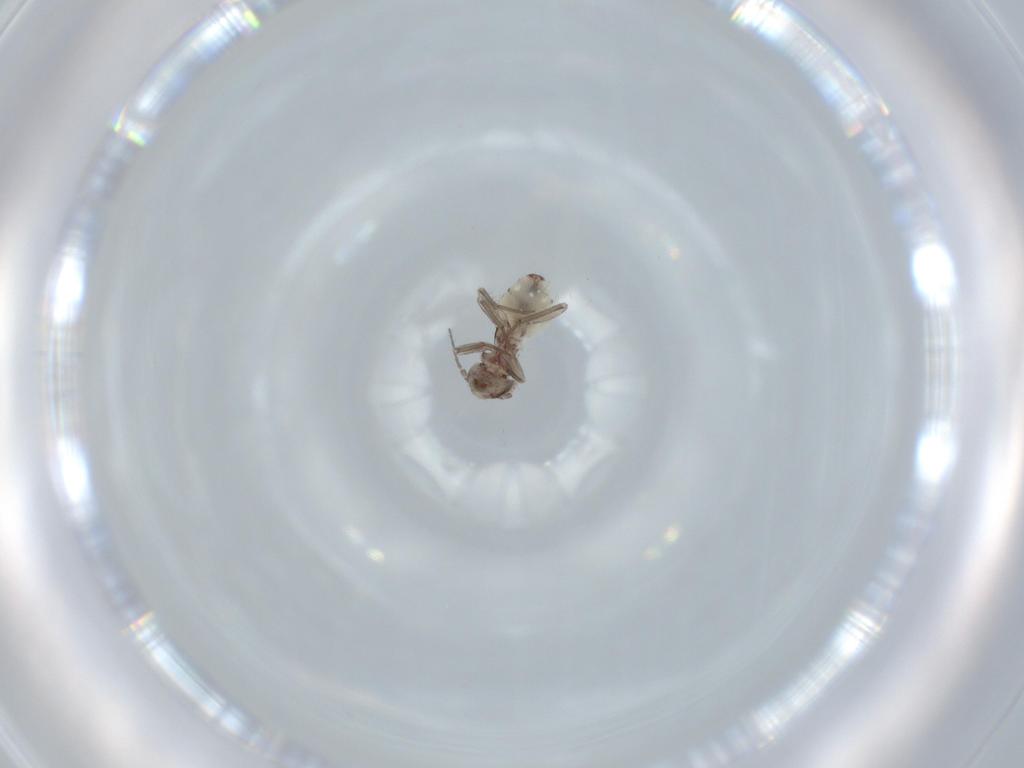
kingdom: Animalia
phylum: Arthropoda
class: Insecta
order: Psocodea
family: Lepidopsocidae
